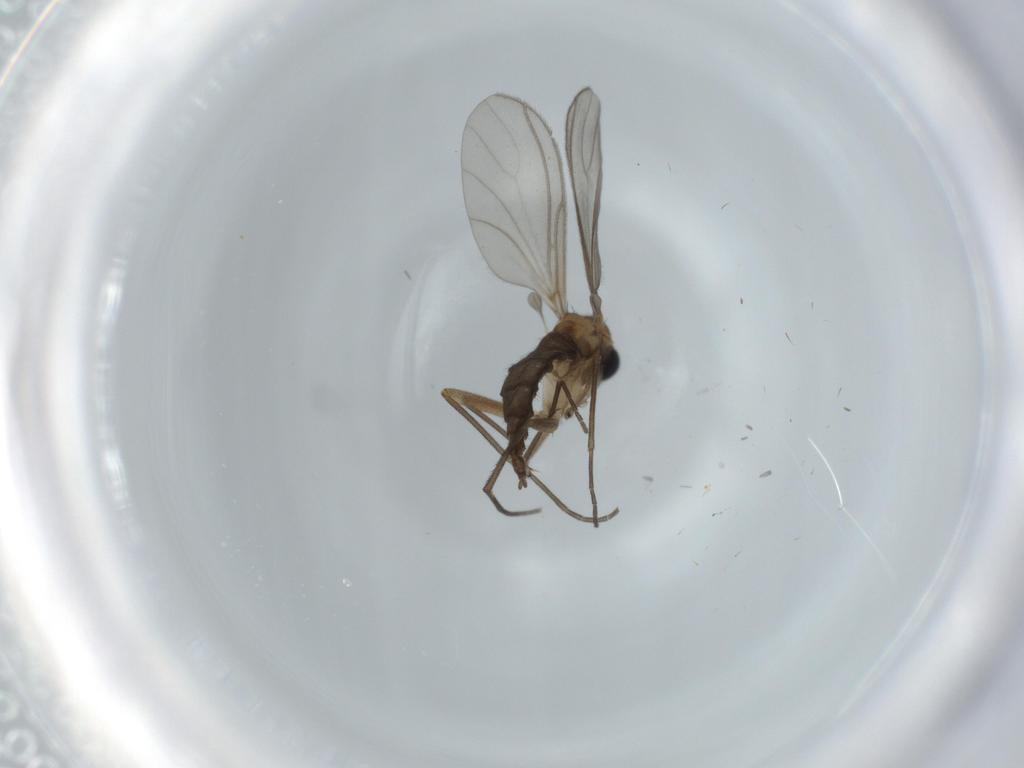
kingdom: Animalia
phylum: Arthropoda
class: Insecta
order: Diptera
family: Sciaridae
